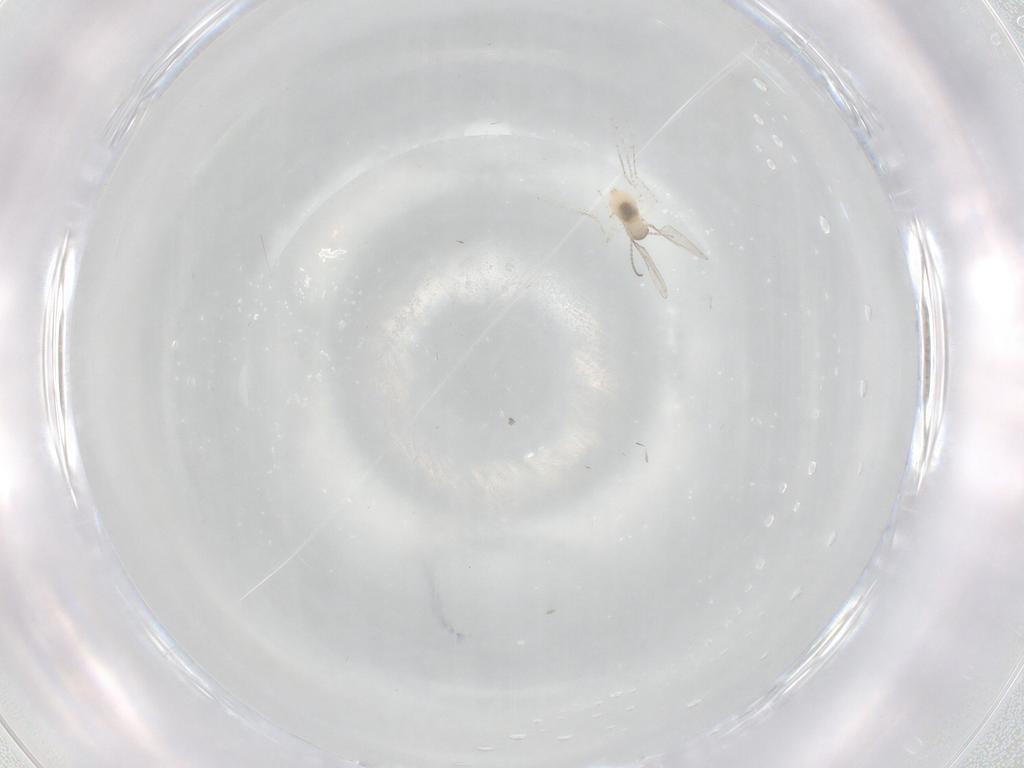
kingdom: Animalia
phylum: Arthropoda
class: Insecta
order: Diptera
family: Cecidomyiidae
